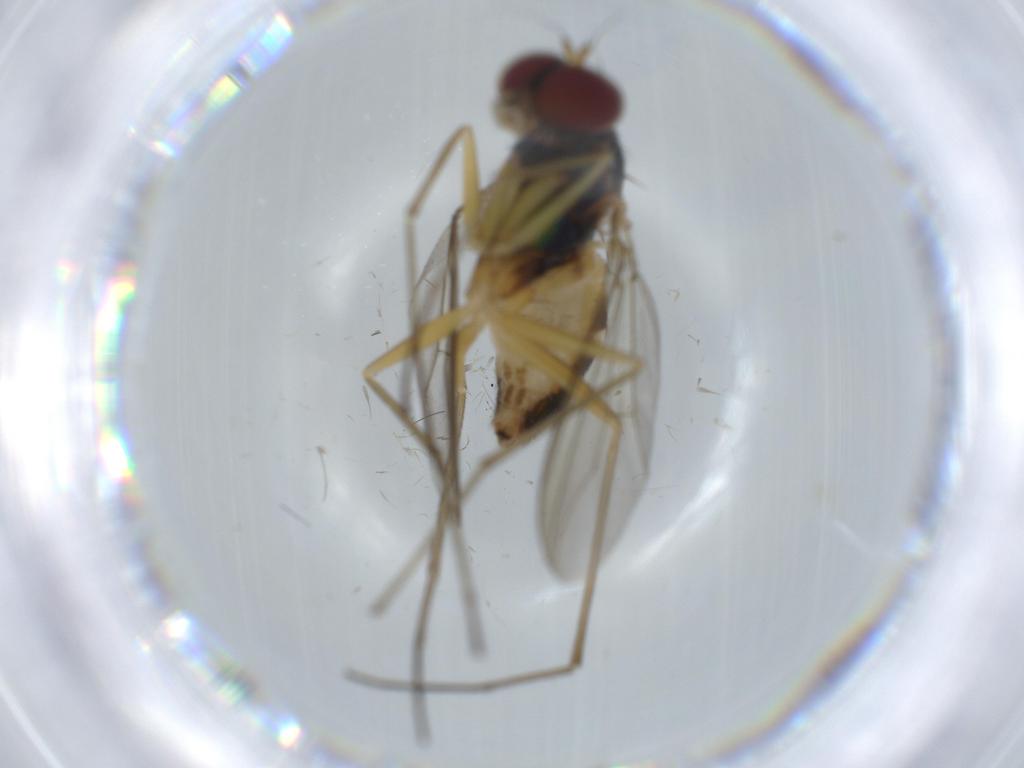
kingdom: Animalia
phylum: Arthropoda
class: Insecta
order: Diptera
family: Dolichopodidae
